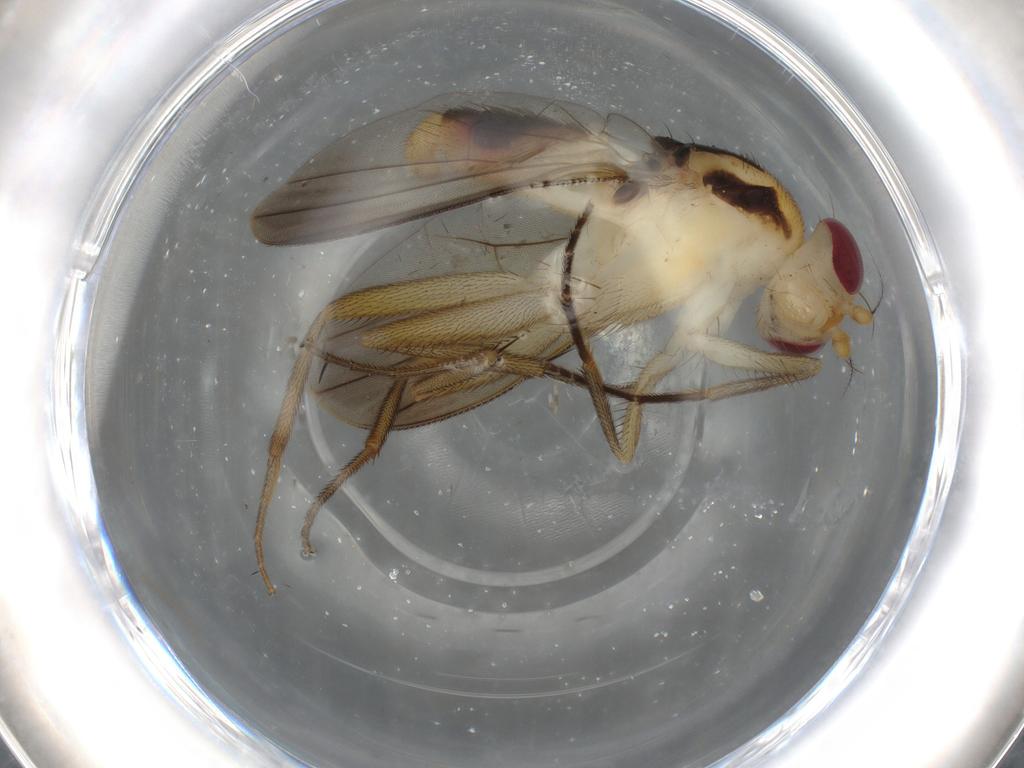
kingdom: Animalia
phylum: Arthropoda
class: Insecta
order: Diptera
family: Clusiidae
